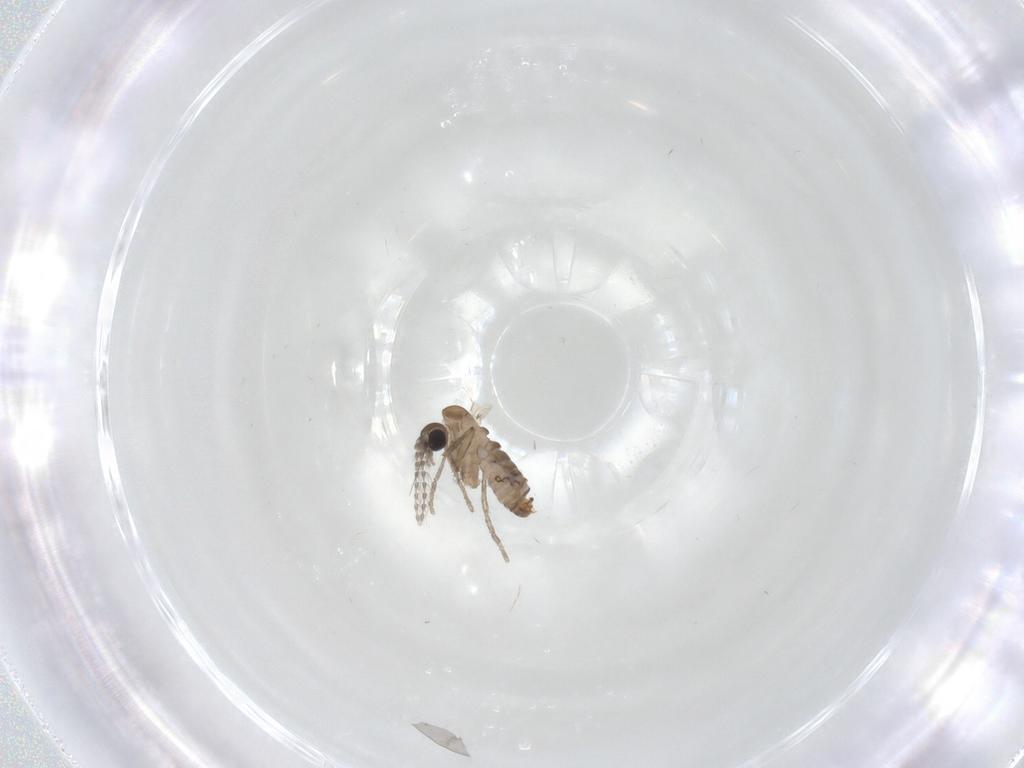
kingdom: Animalia
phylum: Arthropoda
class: Insecta
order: Diptera
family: Psychodidae
